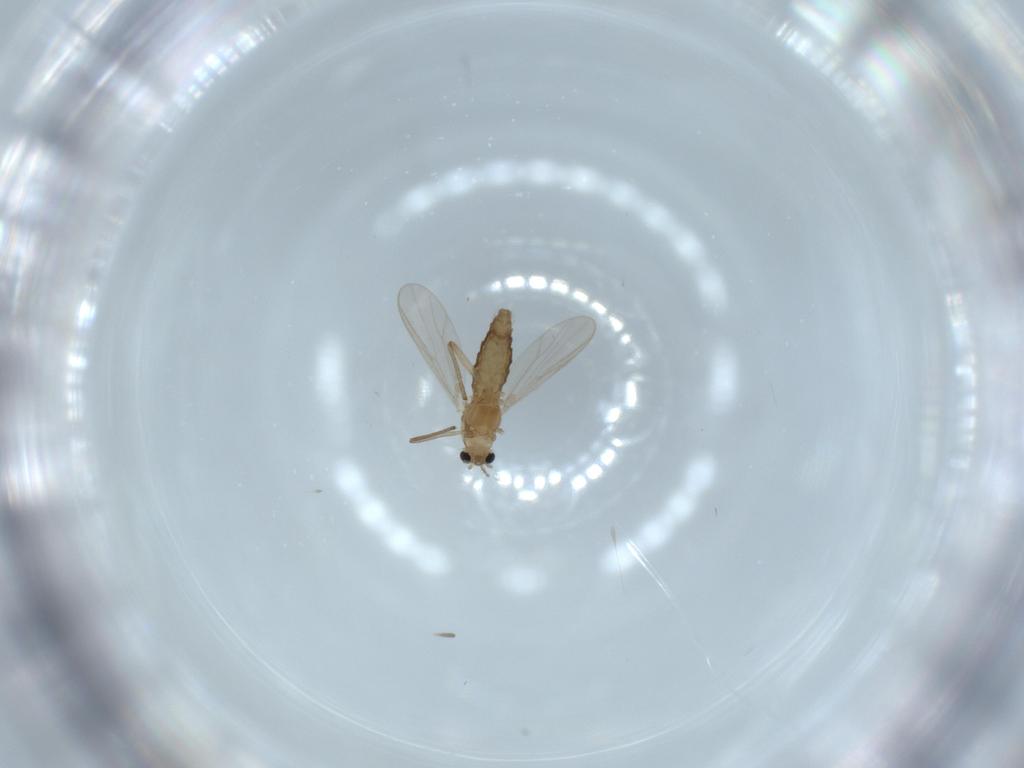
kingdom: Animalia
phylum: Arthropoda
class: Insecta
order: Diptera
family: Chironomidae
